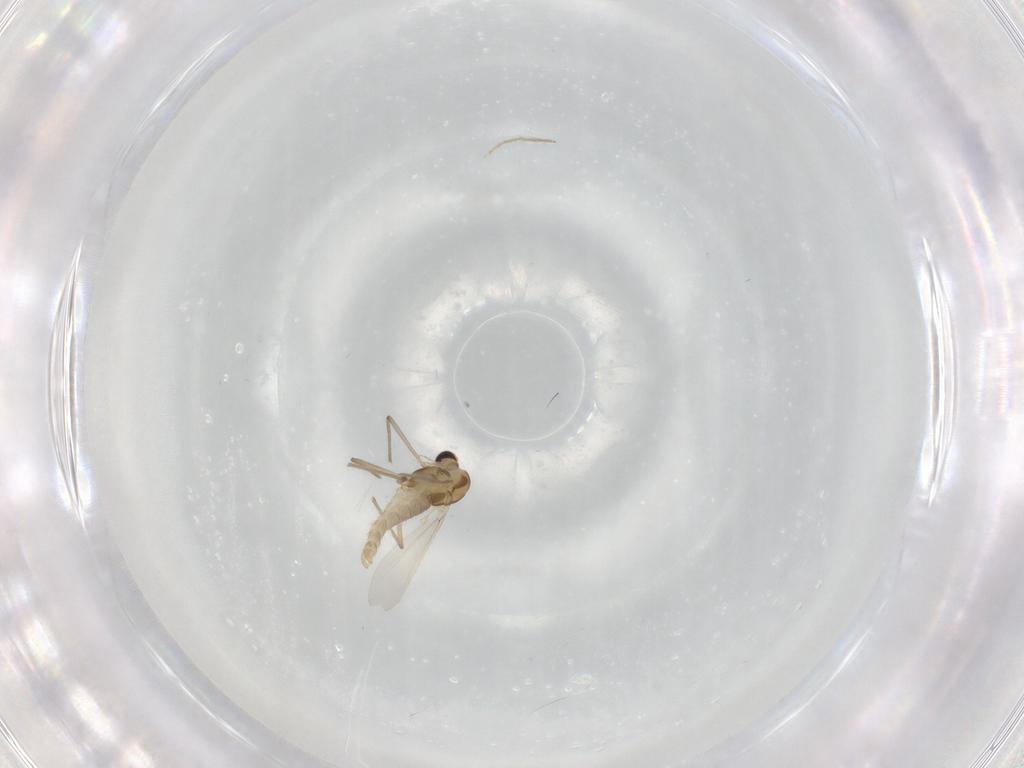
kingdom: Animalia
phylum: Arthropoda
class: Insecta
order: Diptera
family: Chironomidae
